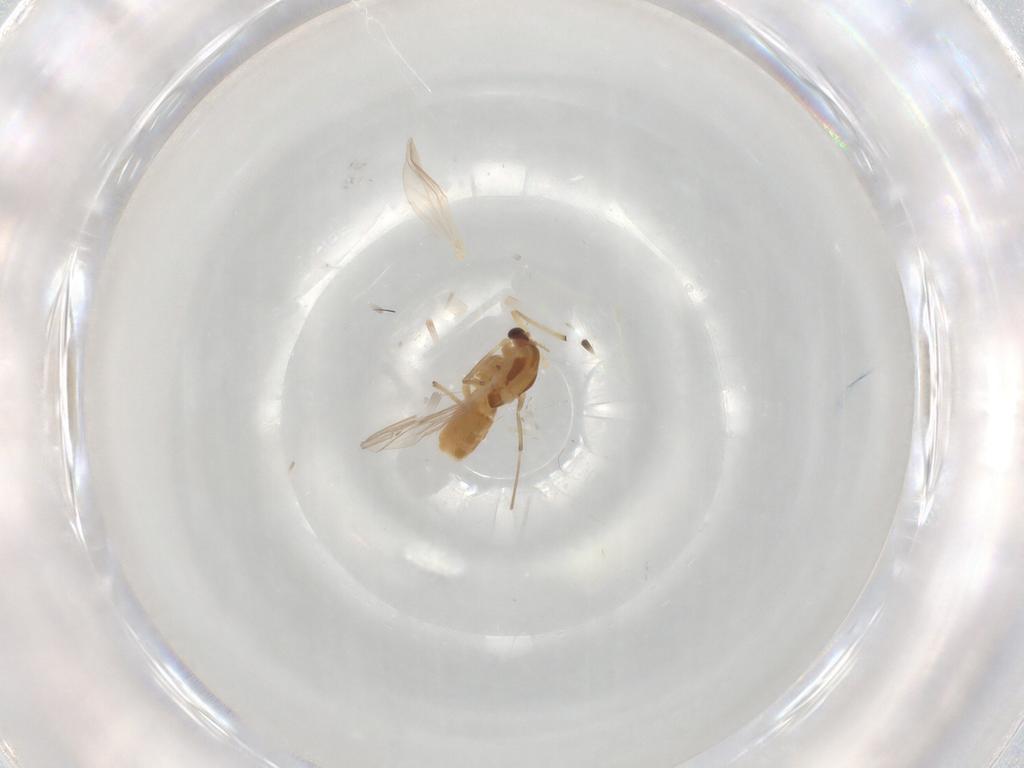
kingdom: Animalia
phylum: Arthropoda
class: Insecta
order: Diptera
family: Chironomidae
